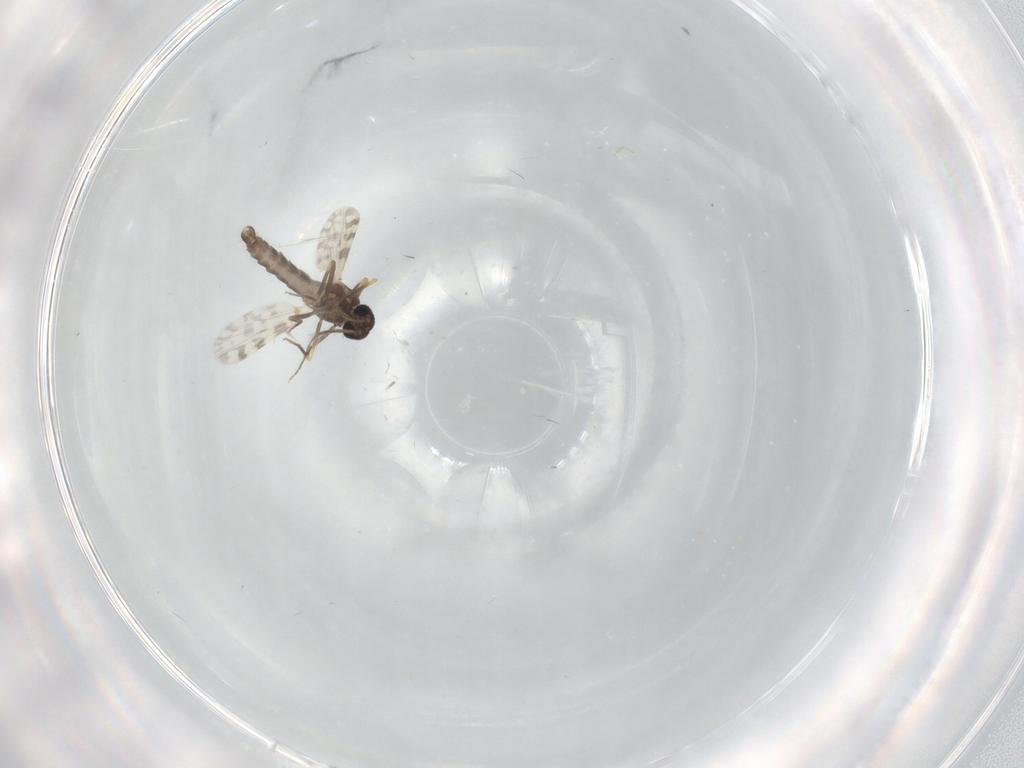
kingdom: Animalia
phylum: Arthropoda
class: Insecta
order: Diptera
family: Ceratopogonidae
